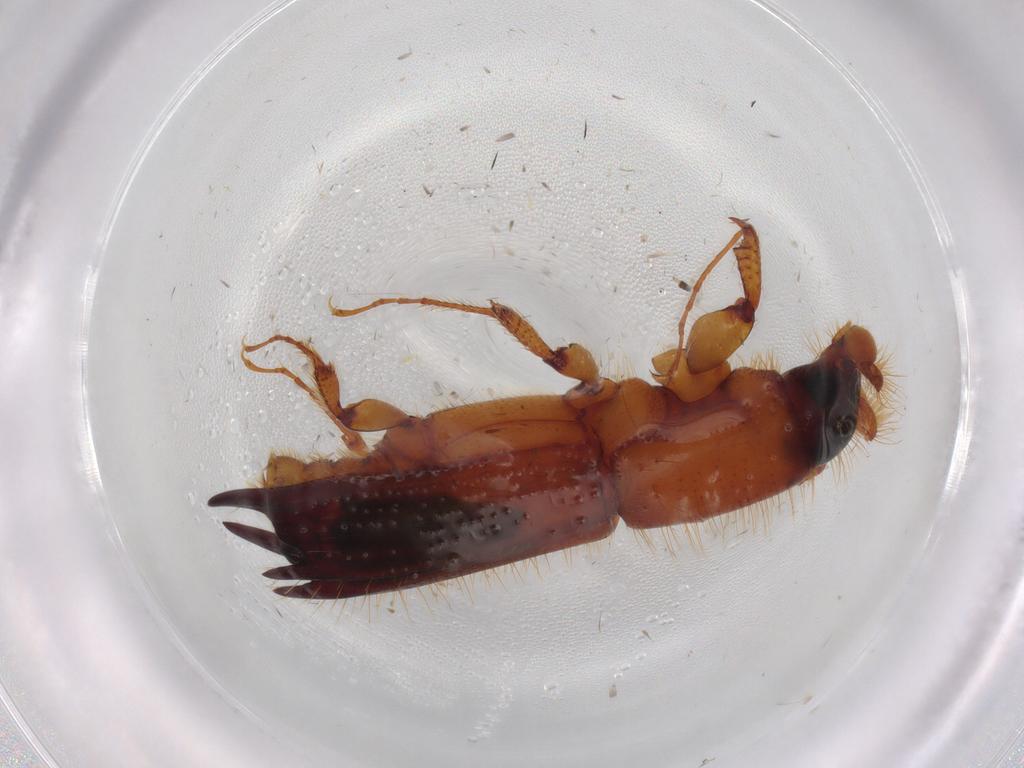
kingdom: Animalia
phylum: Arthropoda
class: Insecta
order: Coleoptera
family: Curculionidae
